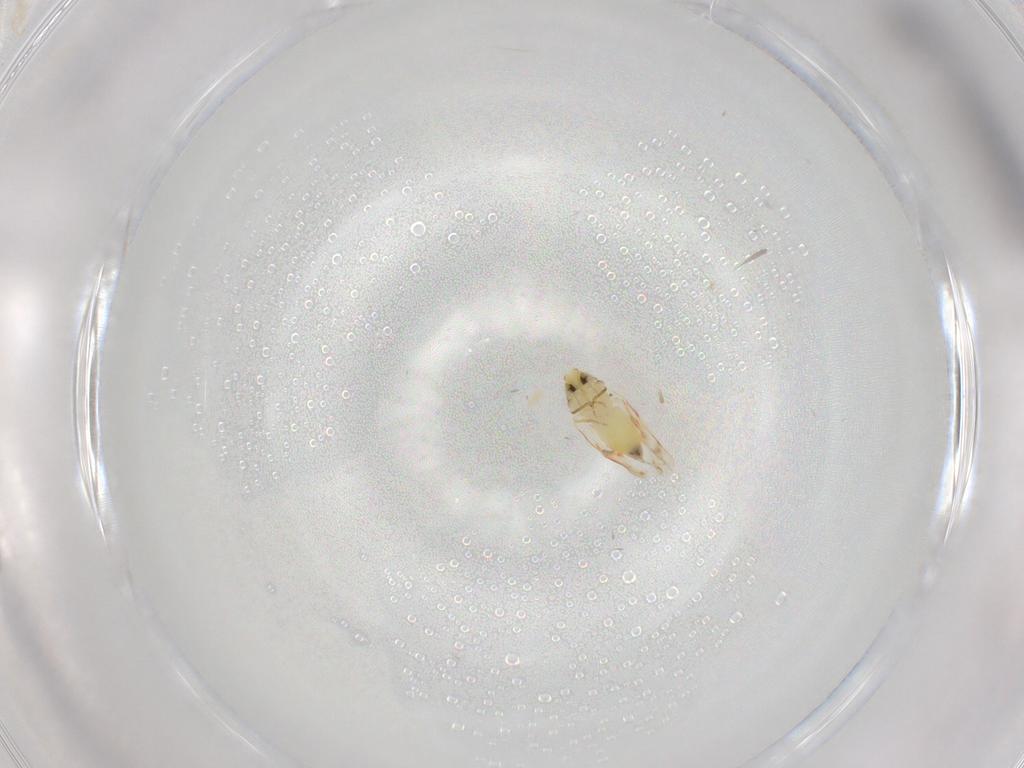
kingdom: Animalia
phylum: Arthropoda
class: Insecta
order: Hemiptera
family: Aleyrodidae
